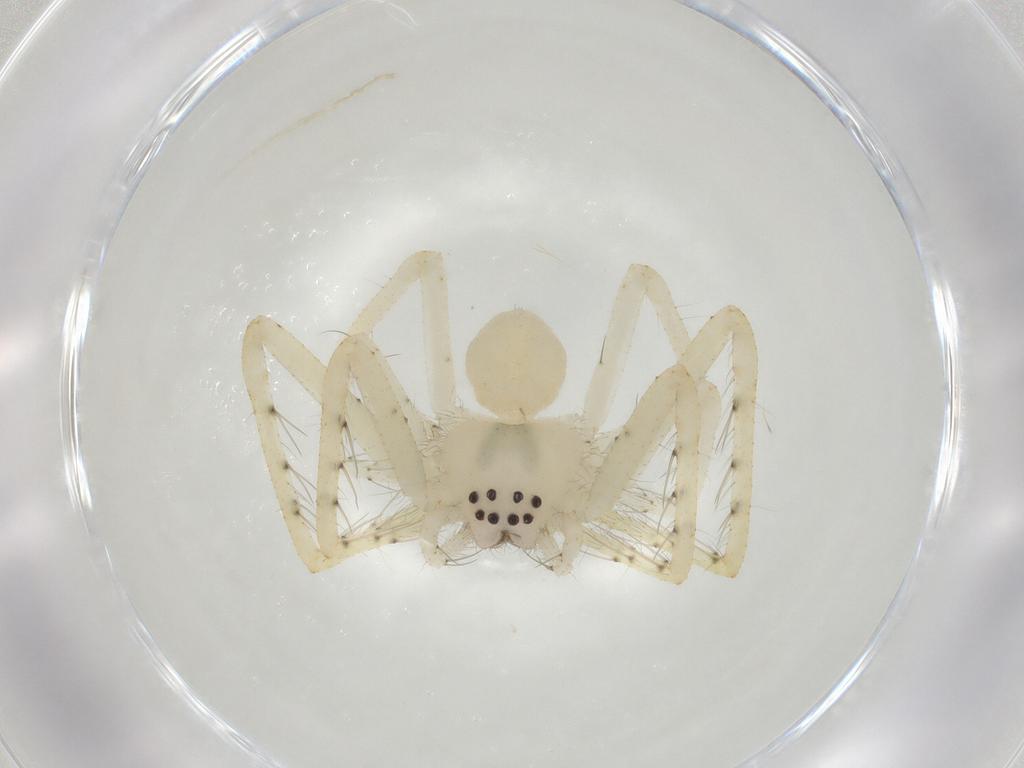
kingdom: Animalia
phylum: Arthropoda
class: Arachnida
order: Araneae
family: Sparassidae
